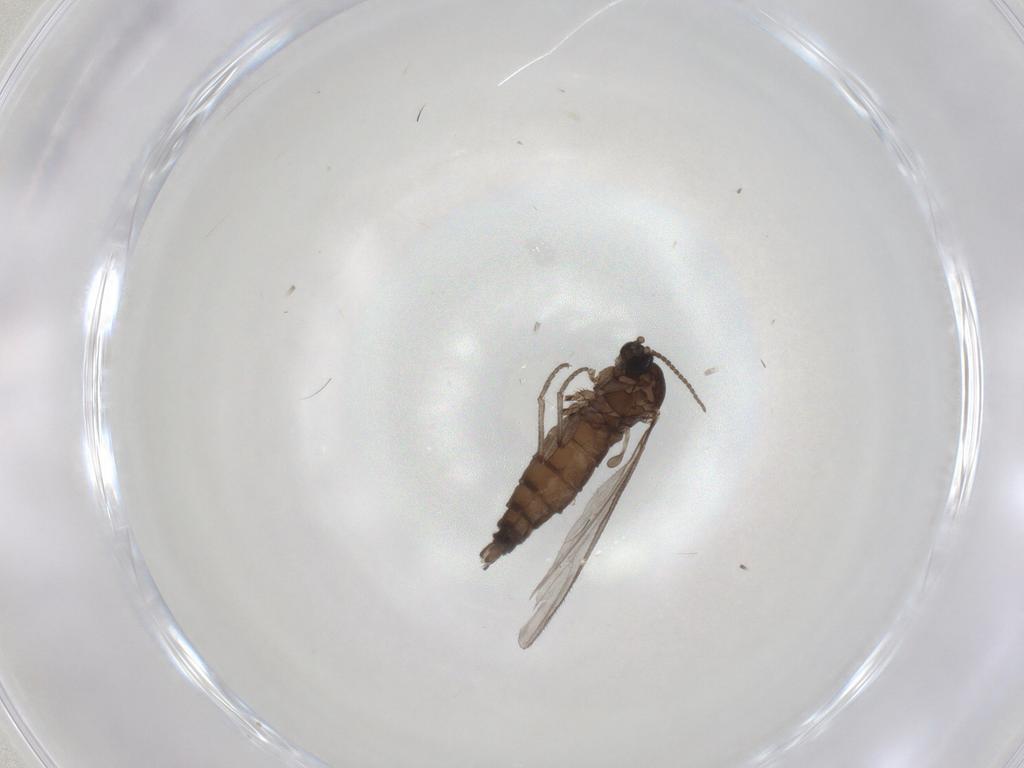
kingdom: Animalia
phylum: Arthropoda
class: Insecta
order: Diptera
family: Sciaridae
